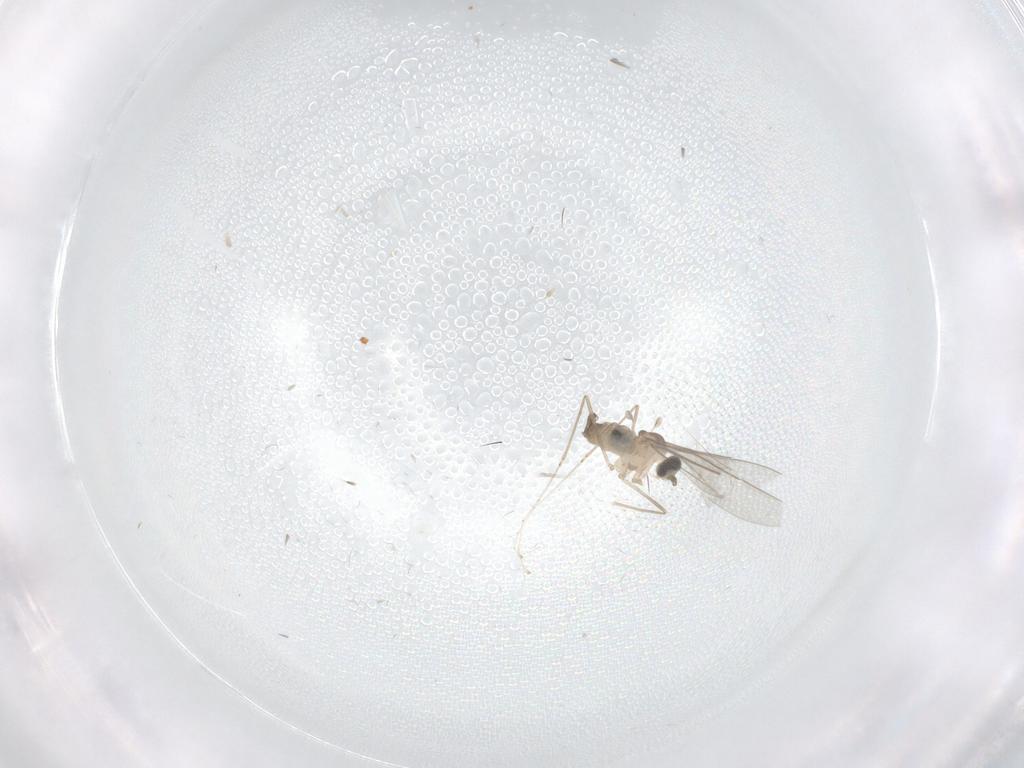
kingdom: Animalia
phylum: Arthropoda
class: Insecta
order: Diptera
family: Cecidomyiidae
